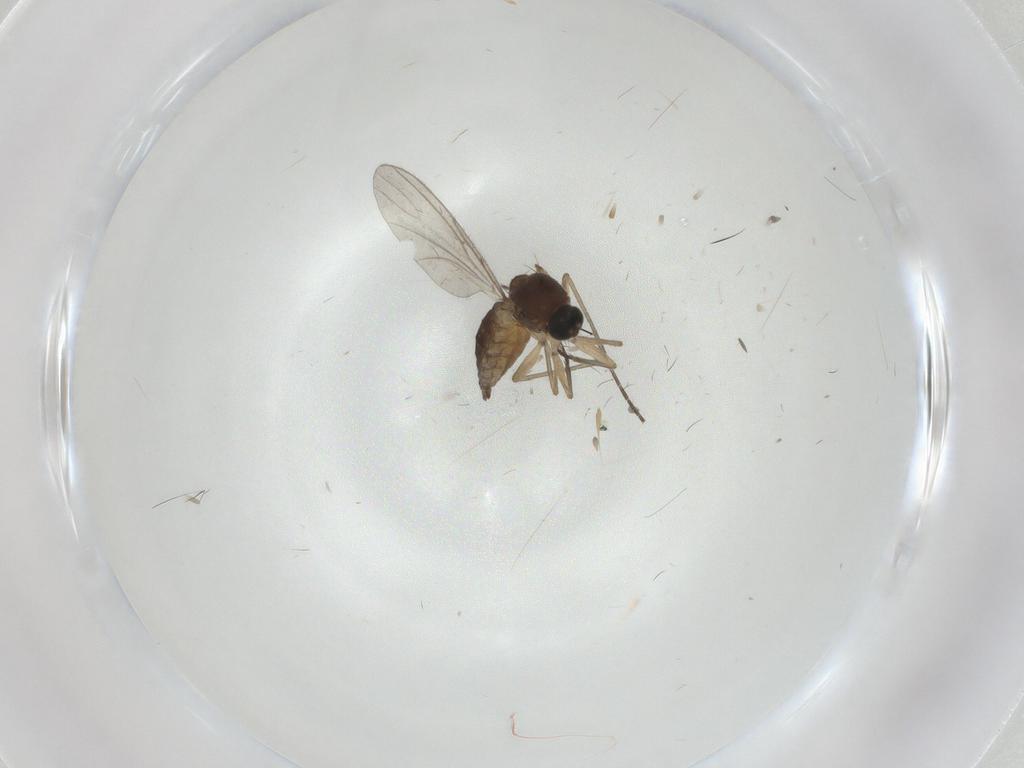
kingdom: Animalia
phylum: Arthropoda
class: Insecta
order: Diptera
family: Sciaridae
